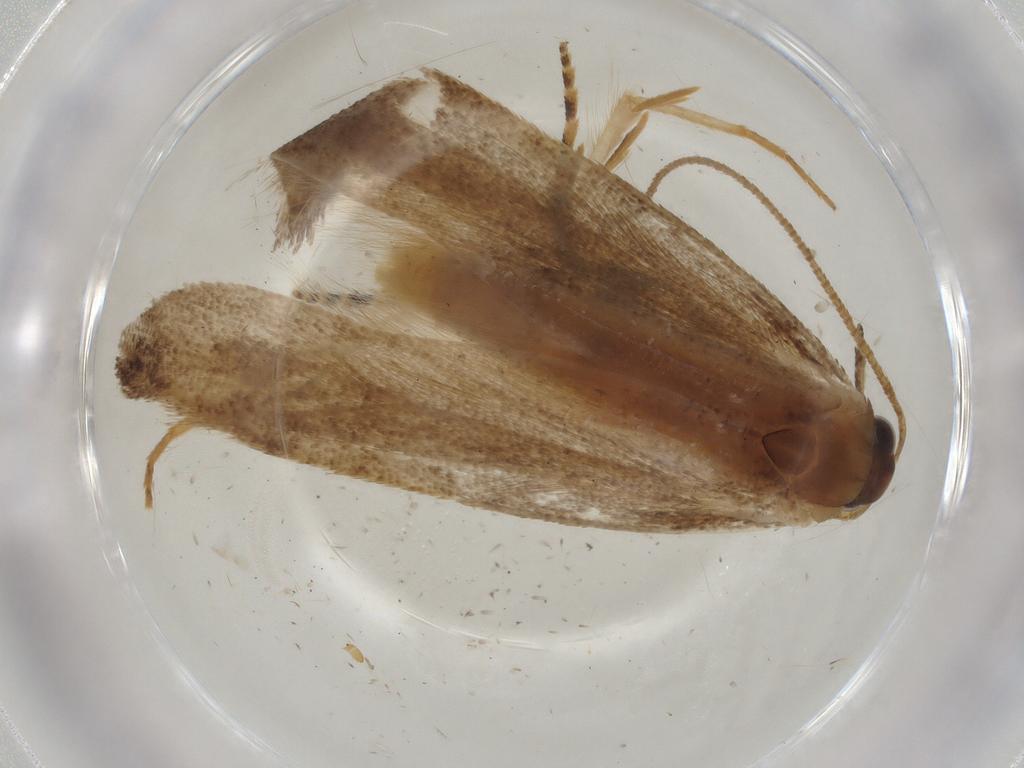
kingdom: Animalia
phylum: Arthropoda
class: Insecta
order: Lepidoptera
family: Gelechiidae
